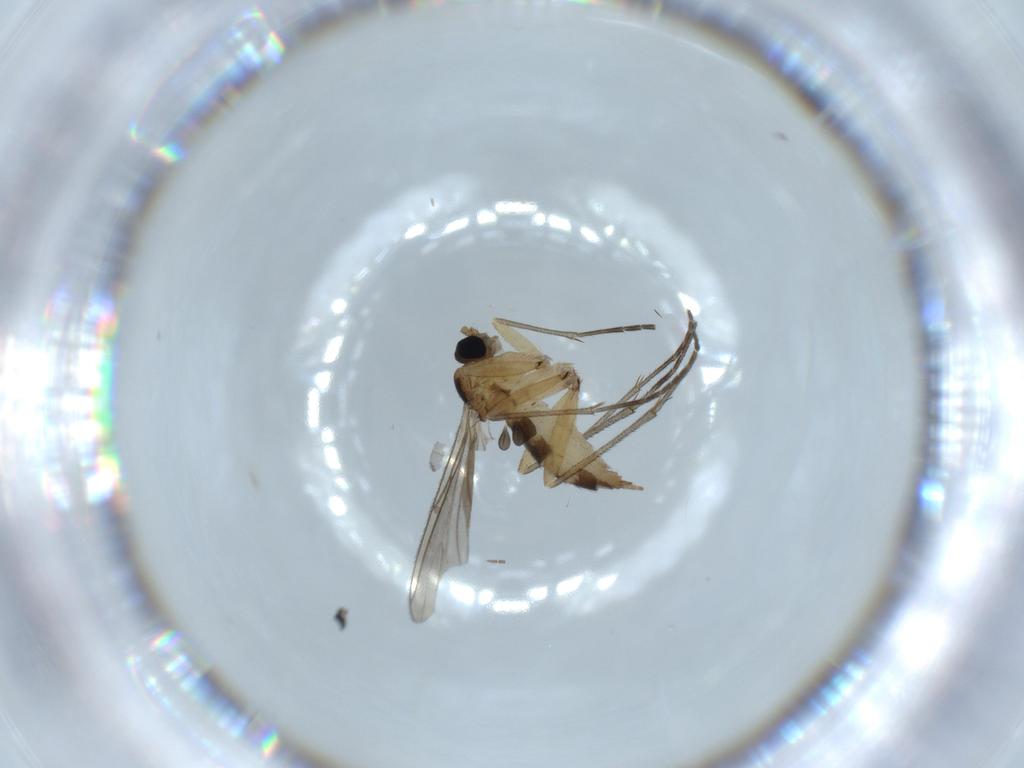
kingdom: Animalia
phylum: Arthropoda
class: Insecta
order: Diptera
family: Sciaridae
